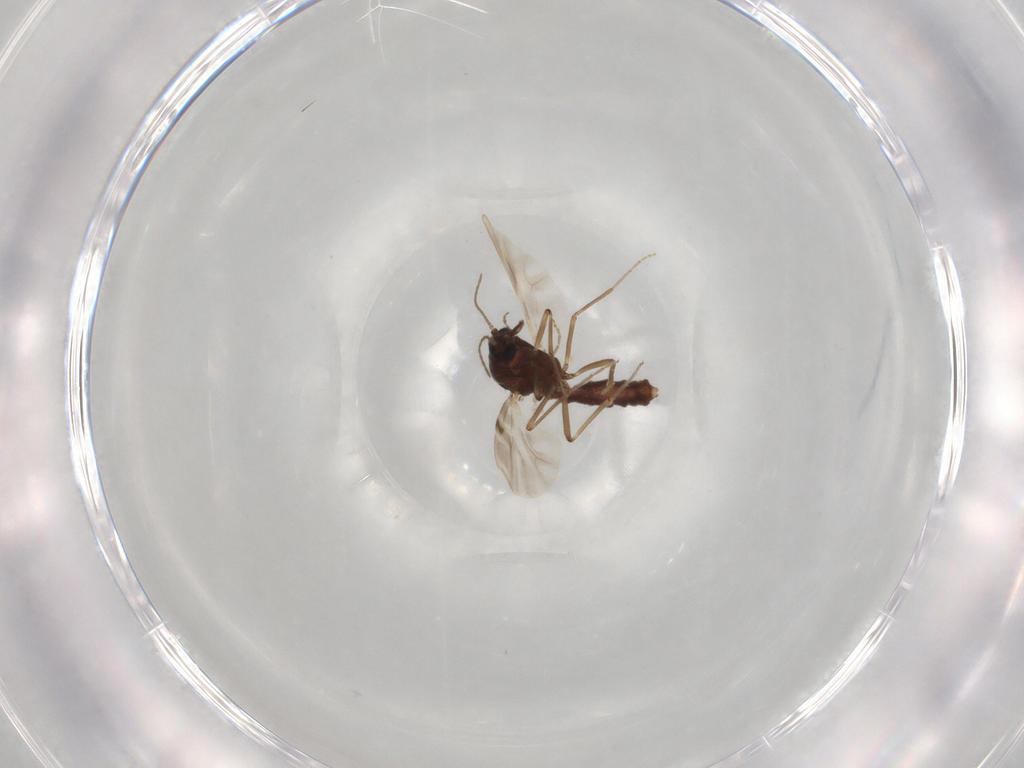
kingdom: Animalia
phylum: Arthropoda
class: Insecta
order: Diptera
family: Ceratopogonidae
